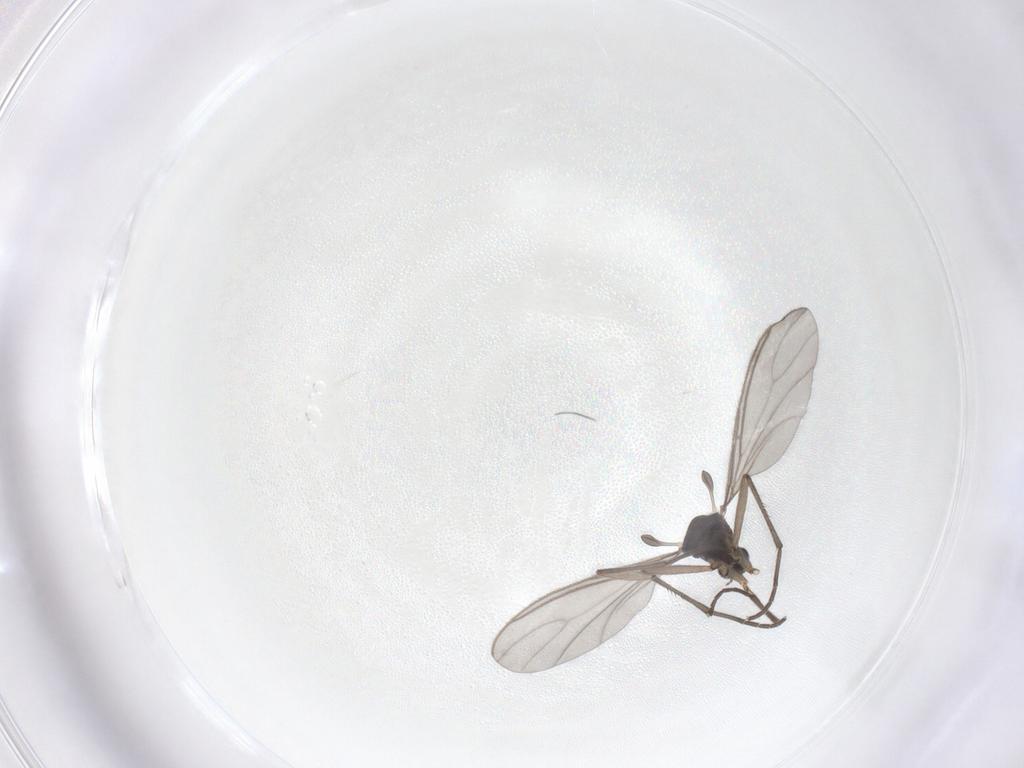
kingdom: Animalia
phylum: Arthropoda
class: Insecta
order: Diptera
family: Sciaridae
